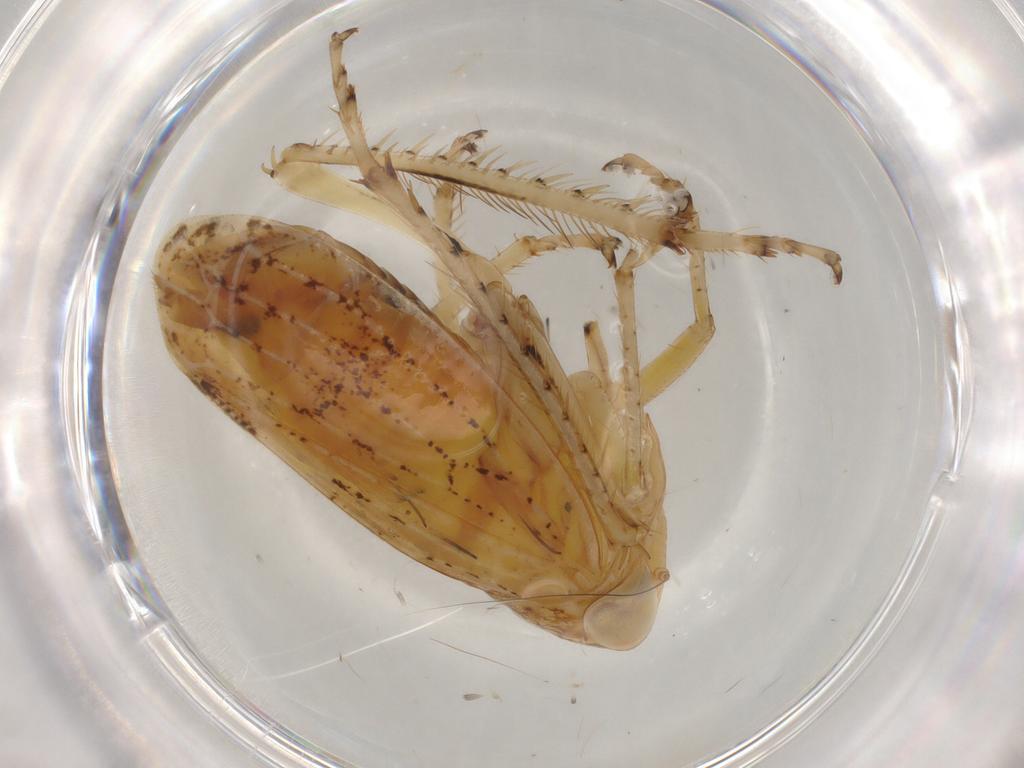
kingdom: Animalia
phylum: Arthropoda
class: Insecta
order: Hemiptera
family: Cicadellidae
